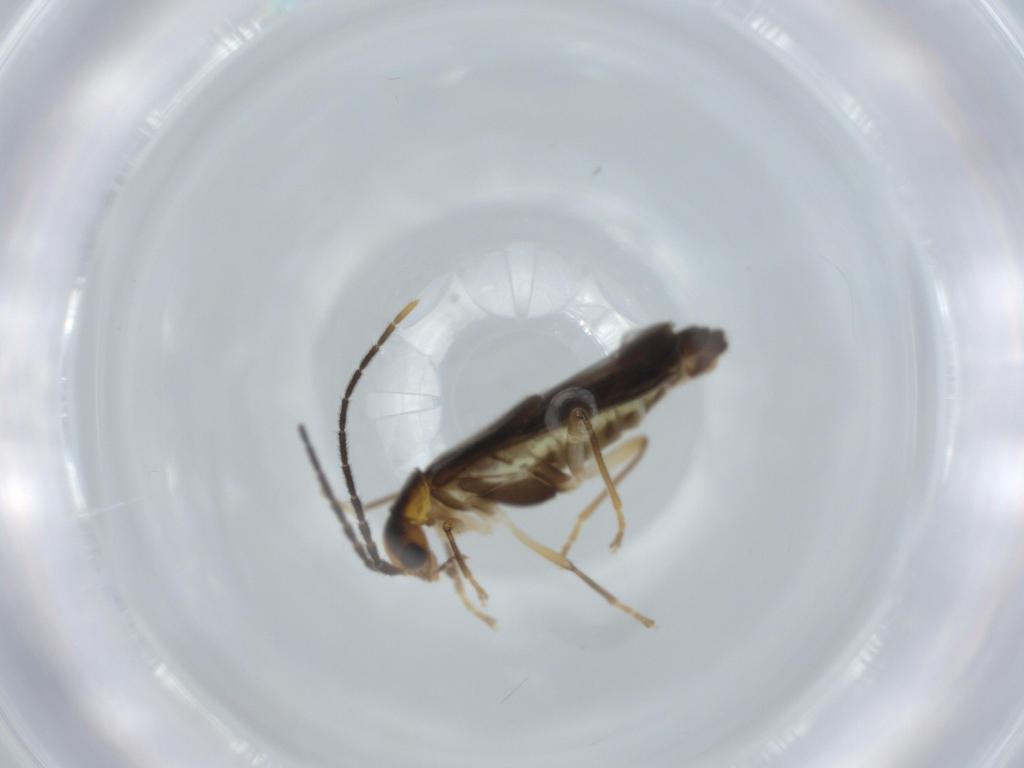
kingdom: Animalia
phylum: Arthropoda
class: Insecta
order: Coleoptera
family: Cantharidae
